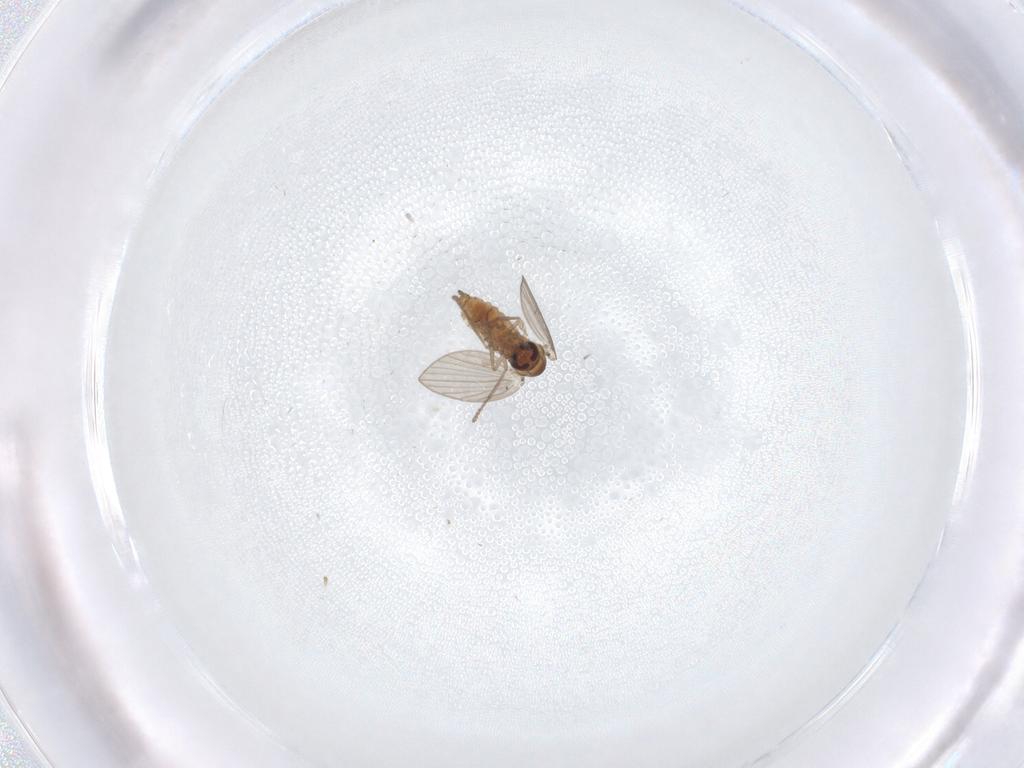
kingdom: Animalia
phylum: Arthropoda
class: Insecta
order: Diptera
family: Psychodidae
